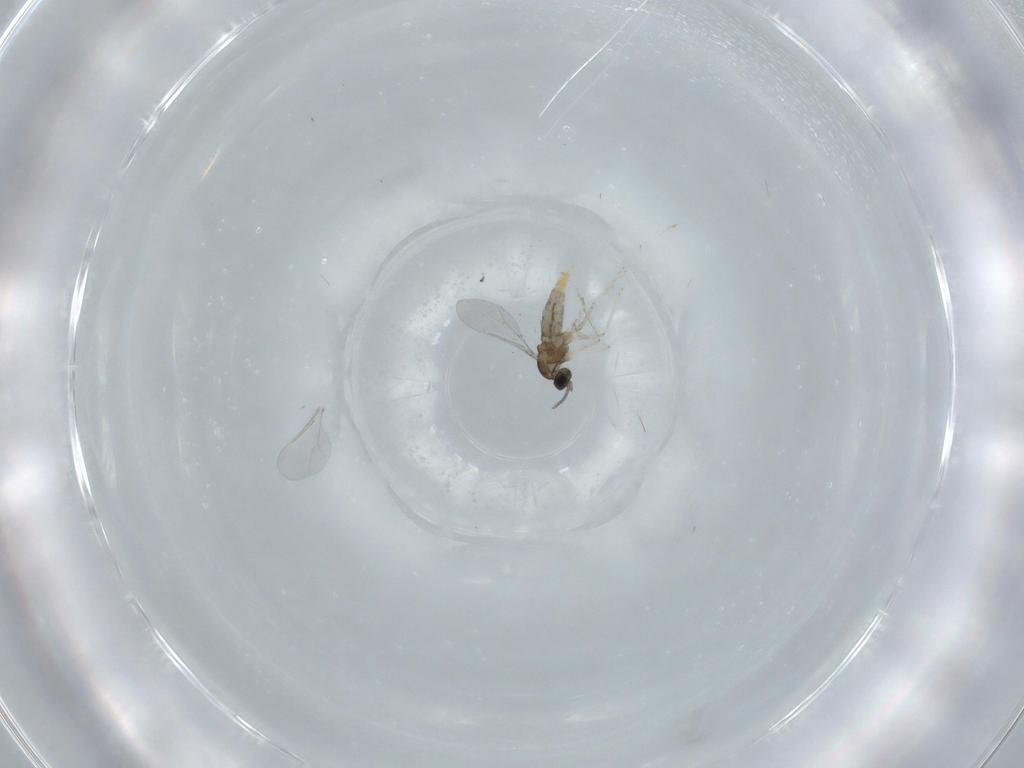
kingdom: Animalia
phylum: Arthropoda
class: Insecta
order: Diptera
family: Cecidomyiidae
